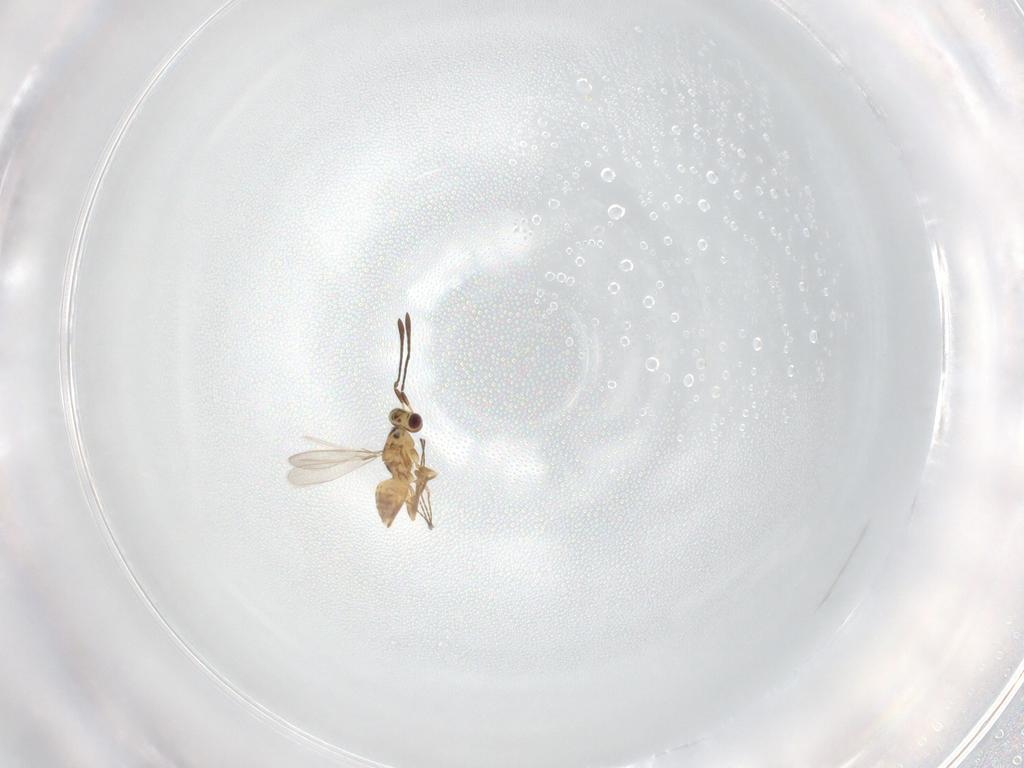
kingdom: Animalia
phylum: Arthropoda
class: Insecta
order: Hymenoptera
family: Mymaridae
